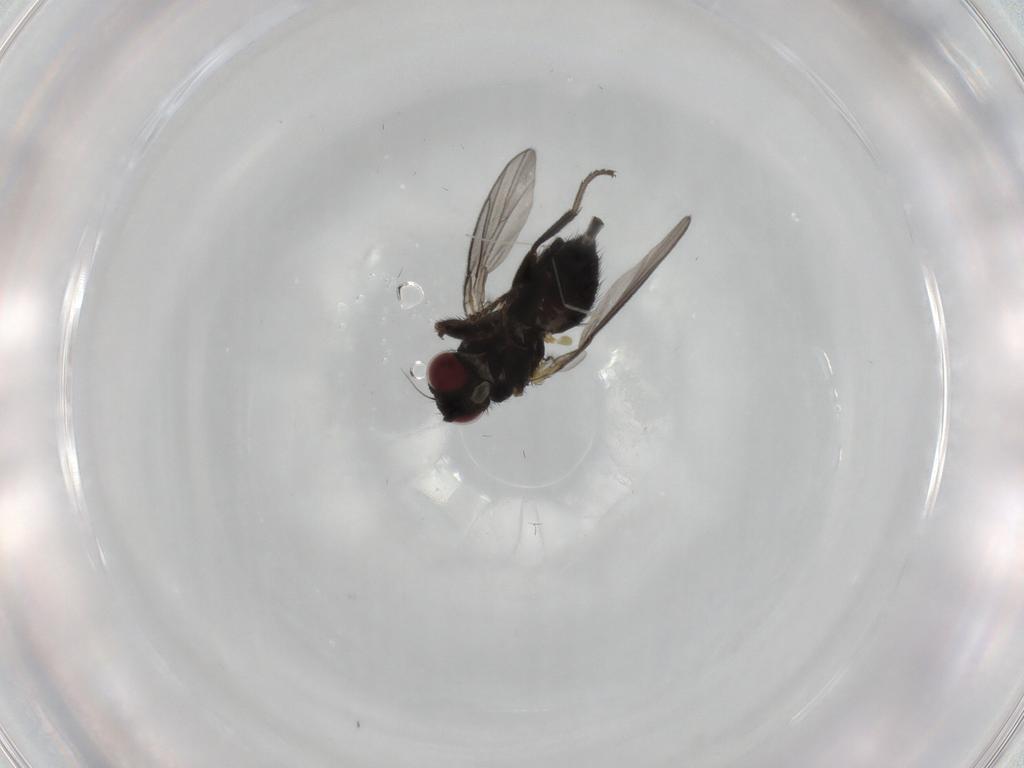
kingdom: Animalia
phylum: Arthropoda
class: Insecta
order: Diptera
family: Agromyzidae
